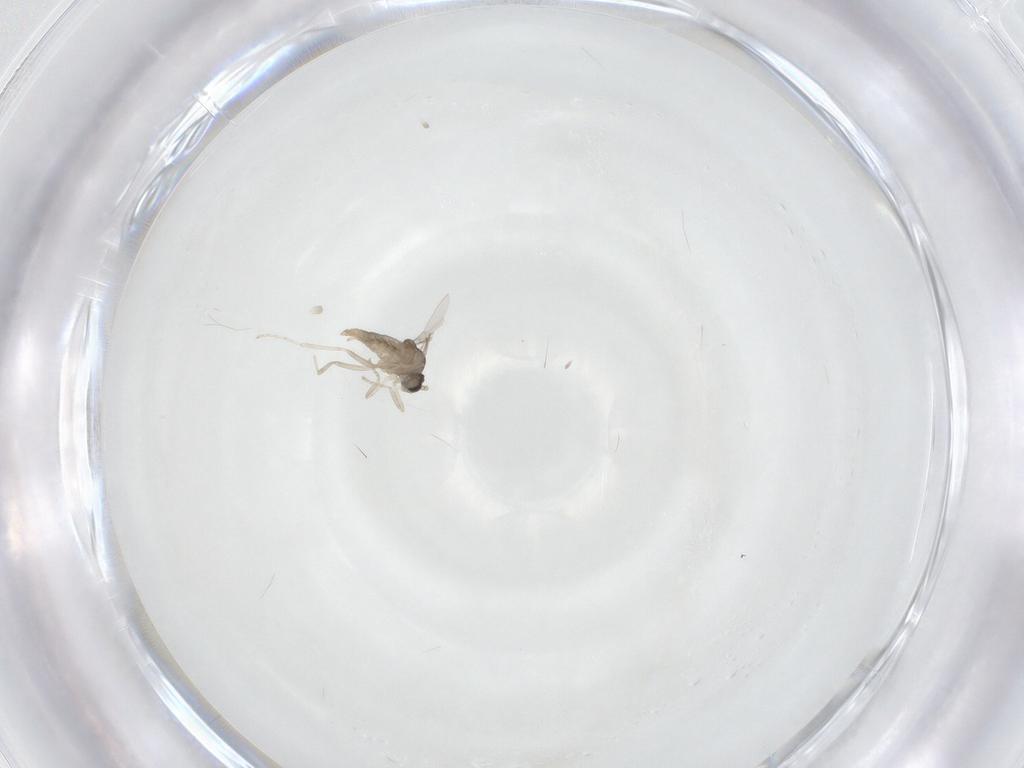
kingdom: Animalia
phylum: Arthropoda
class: Insecta
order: Diptera
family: Cecidomyiidae
